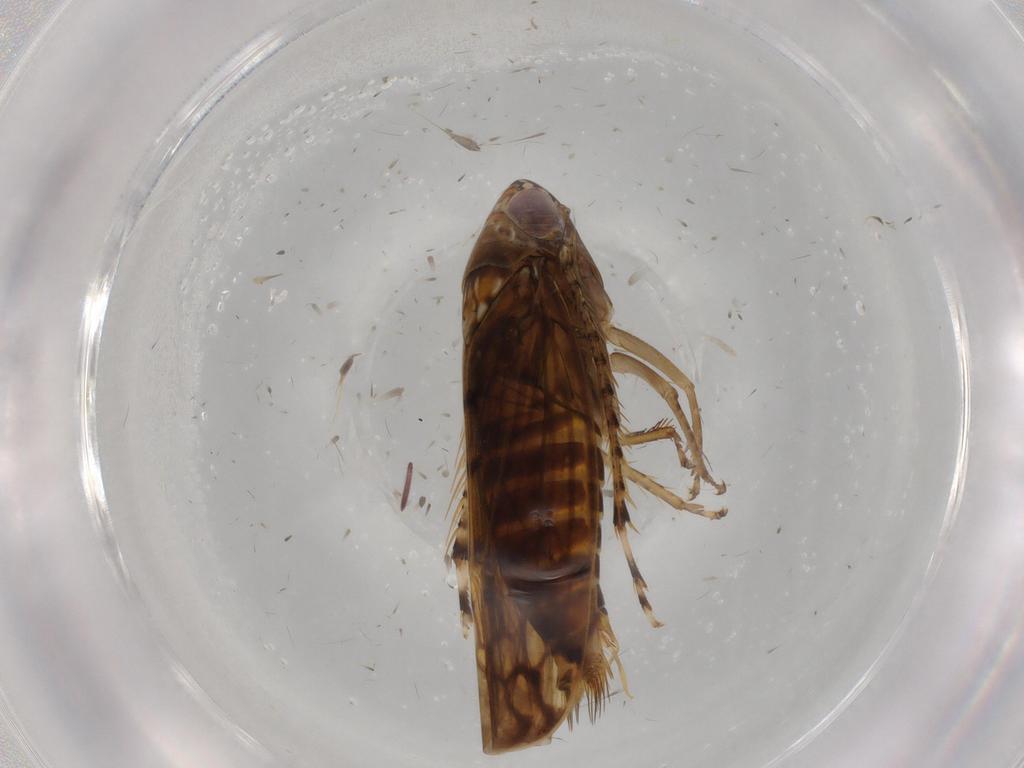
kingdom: Animalia
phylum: Arthropoda
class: Insecta
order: Hemiptera
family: Cicadellidae
